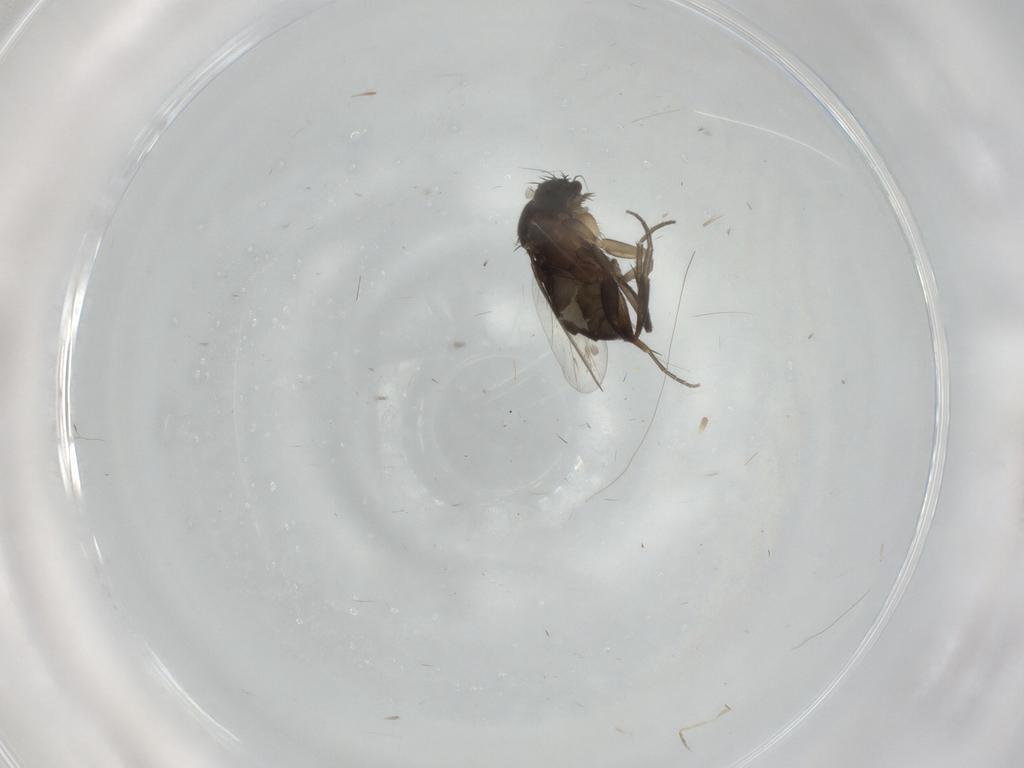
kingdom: Animalia
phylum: Arthropoda
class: Insecta
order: Diptera
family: Phoridae
